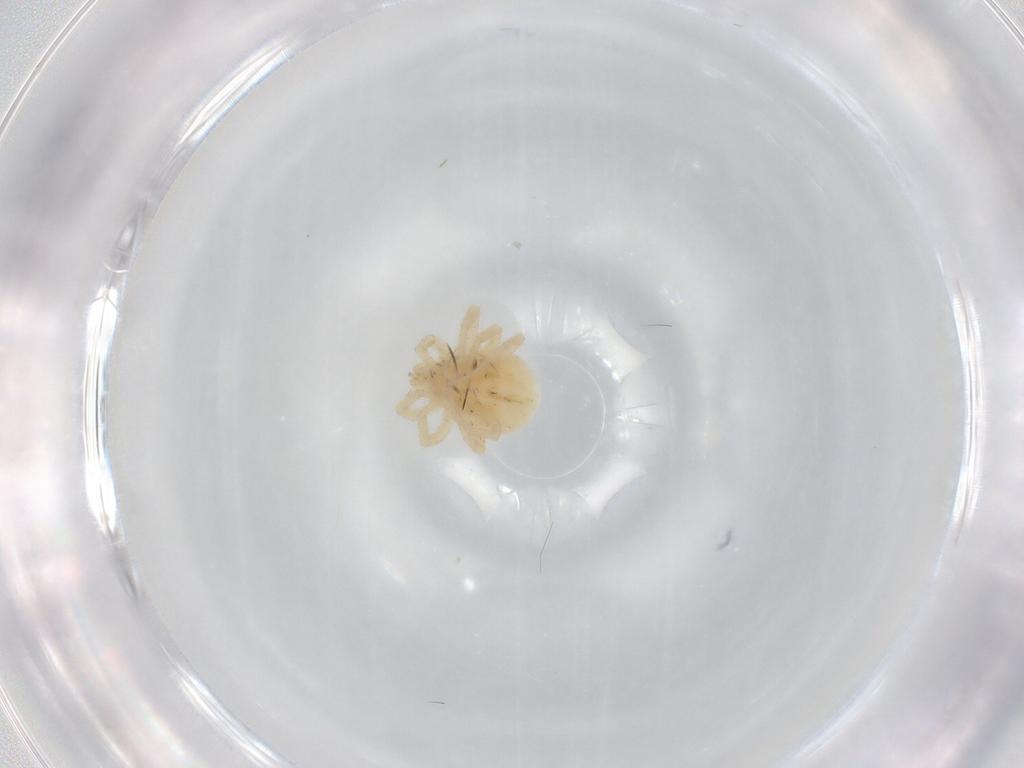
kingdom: Animalia
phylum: Arthropoda
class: Arachnida
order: Trombidiformes
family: Anystidae
